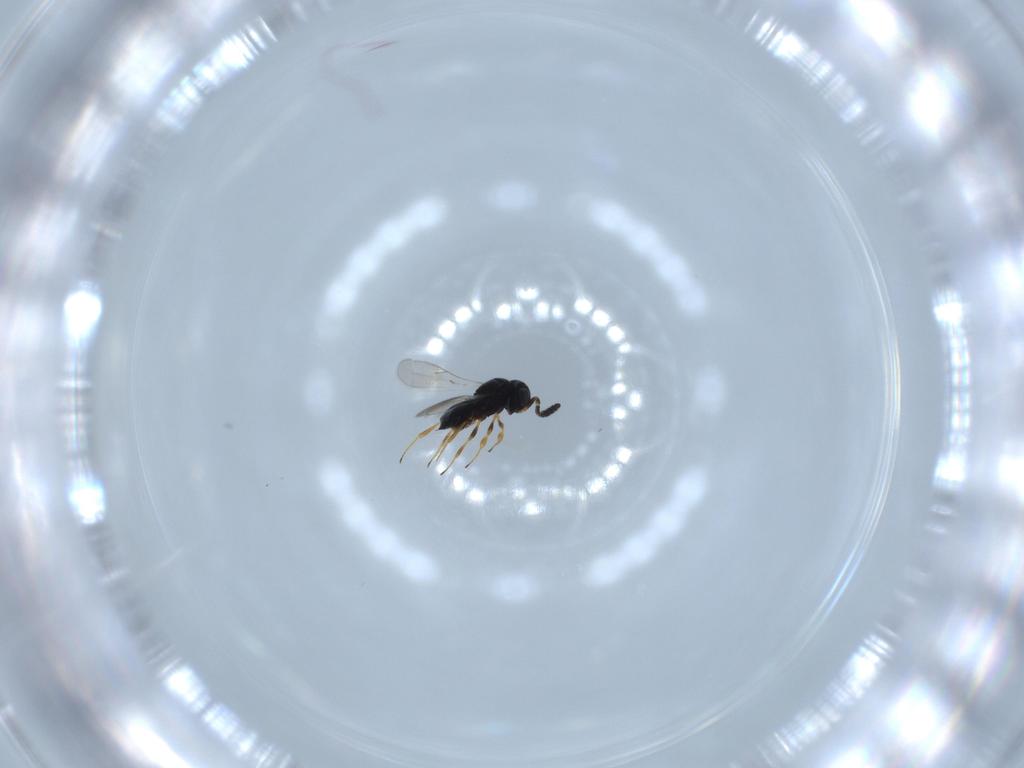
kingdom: Animalia
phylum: Arthropoda
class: Insecta
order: Hymenoptera
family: Scelionidae
